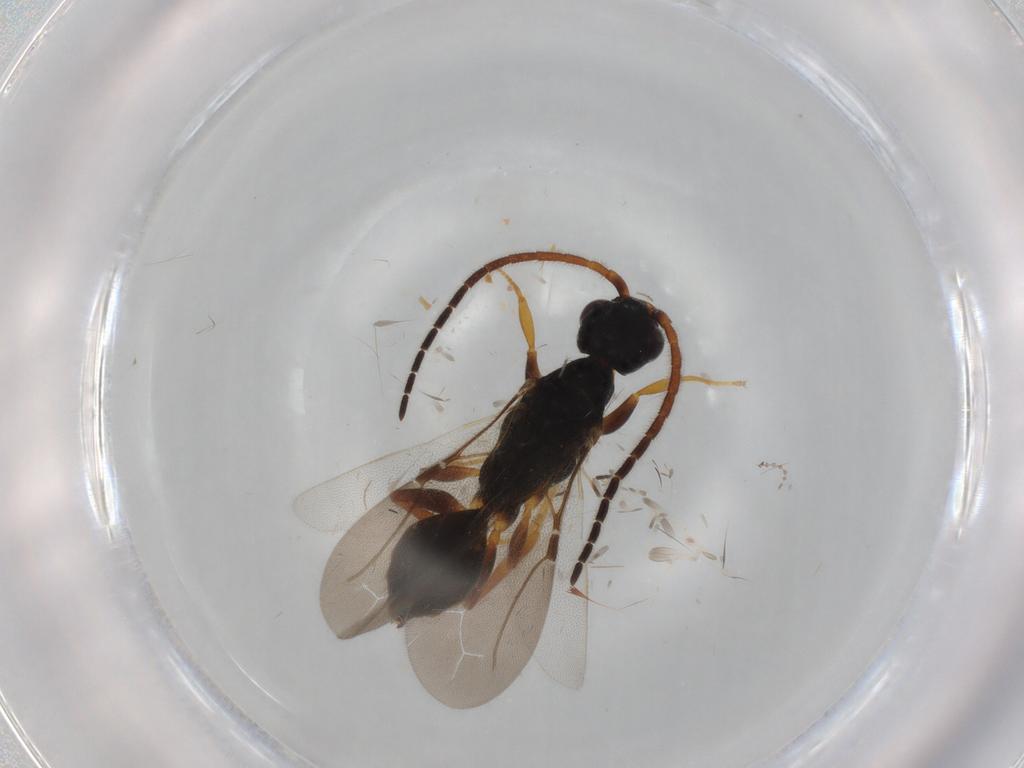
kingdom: Animalia
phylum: Arthropoda
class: Insecta
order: Hymenoptera
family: Bethylidae
